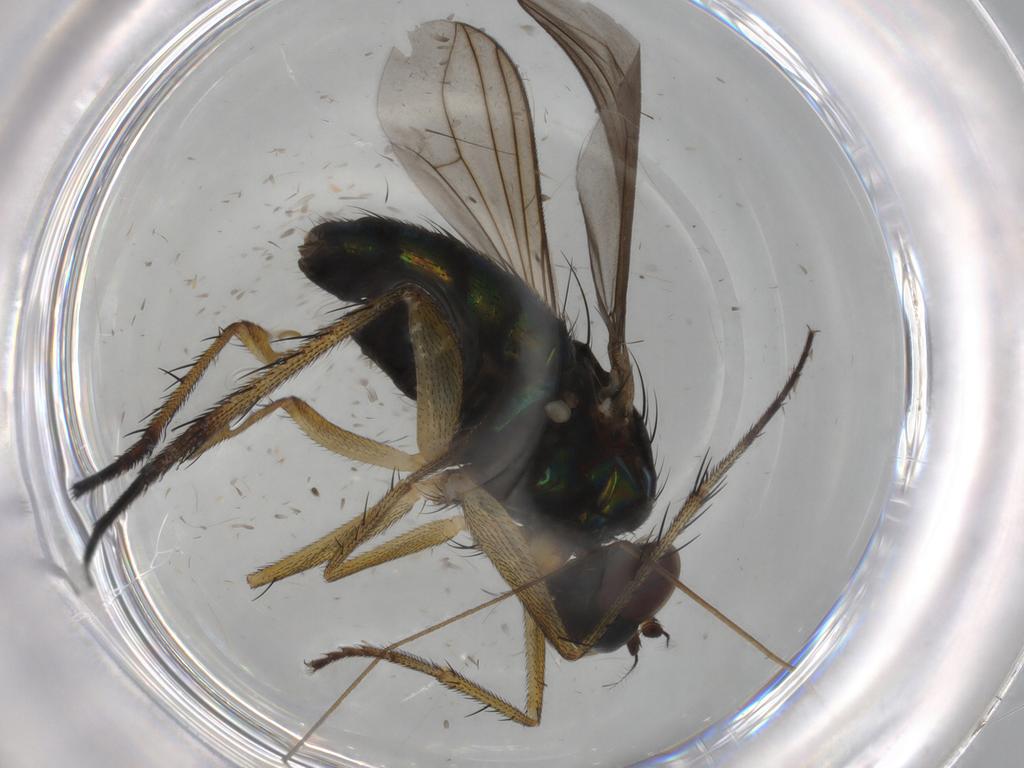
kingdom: Animalia
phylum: Arthropoda
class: Insecta
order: Diptera
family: Dolichopodidae
